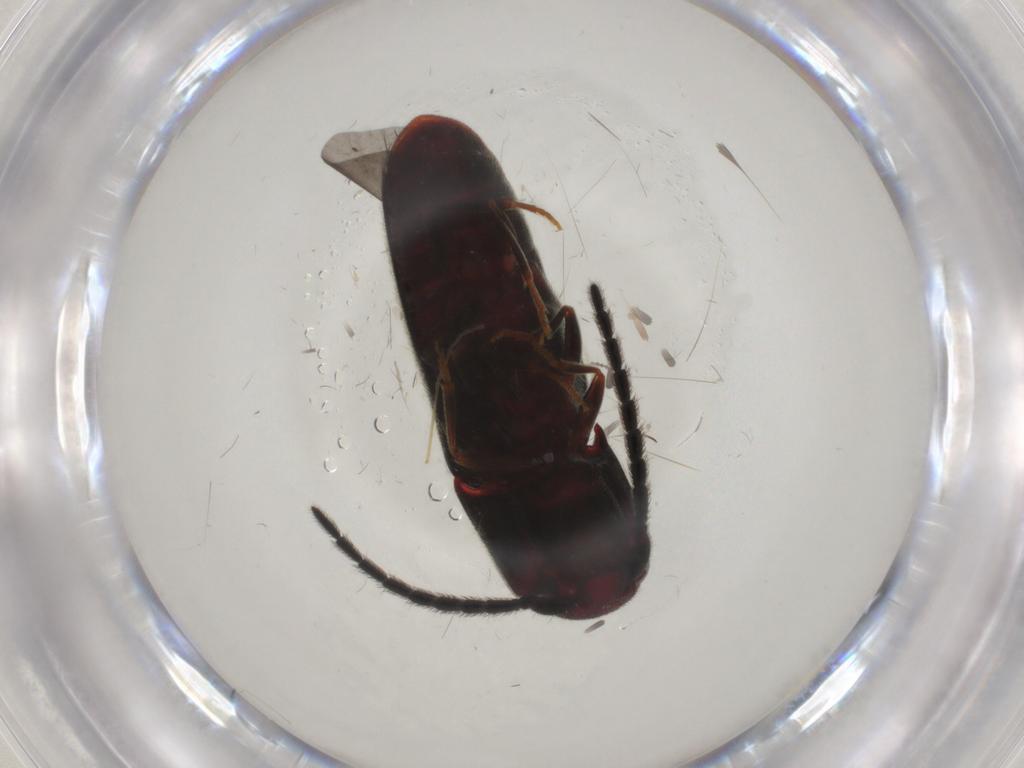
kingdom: Animalia
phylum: Arthropoda
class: Insecta
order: Coleoptera
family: Eucnemidae
